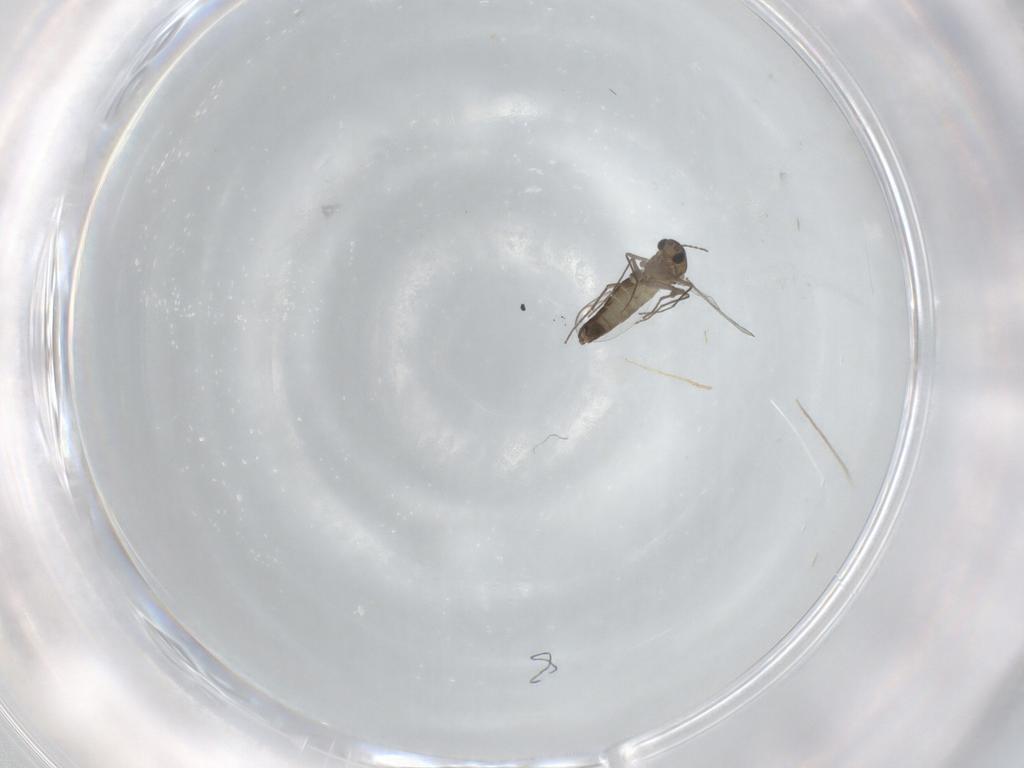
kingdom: Animalia
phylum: Arthropoda
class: Insecta
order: Diptera
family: Chironomidae
